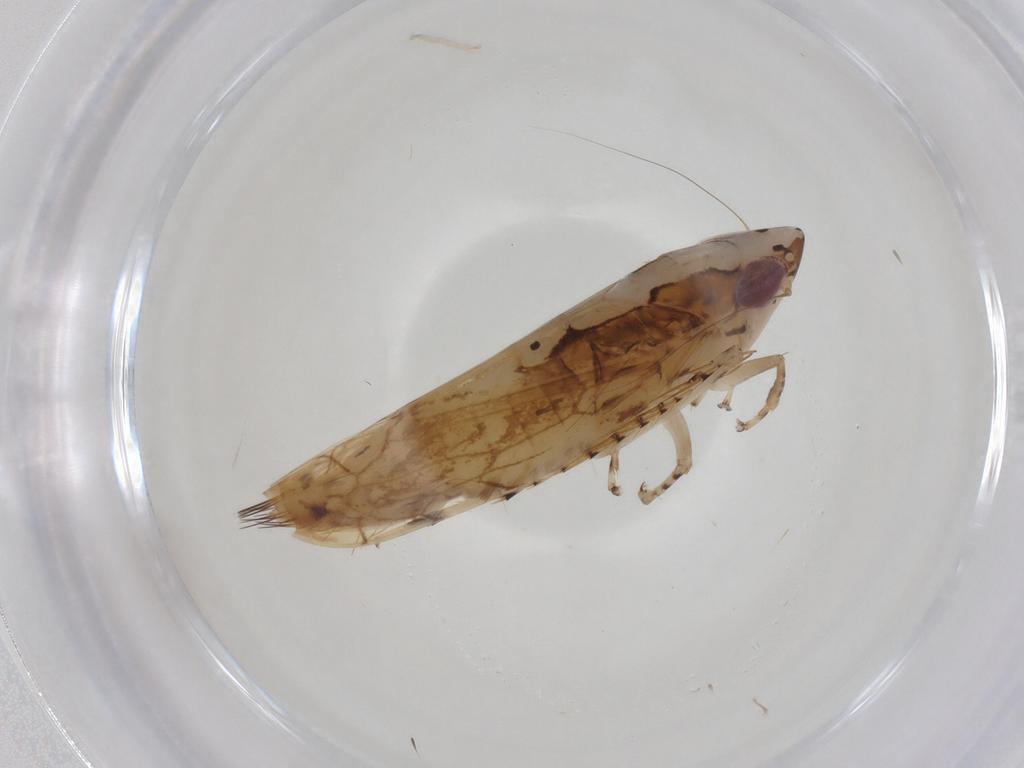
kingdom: Animalia
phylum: Arthropoda
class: Insecta
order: Hemiptera
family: Cicadellidae
